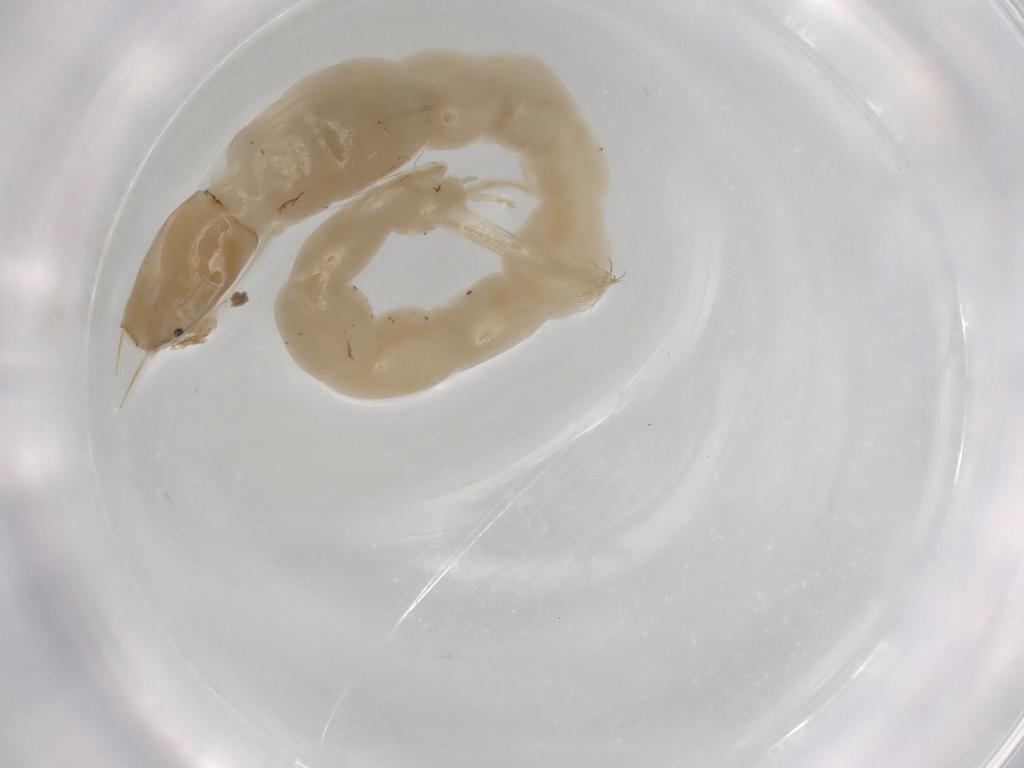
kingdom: Animalia
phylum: Arthropoda
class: Insecta
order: Diptera
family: Chironomidae
